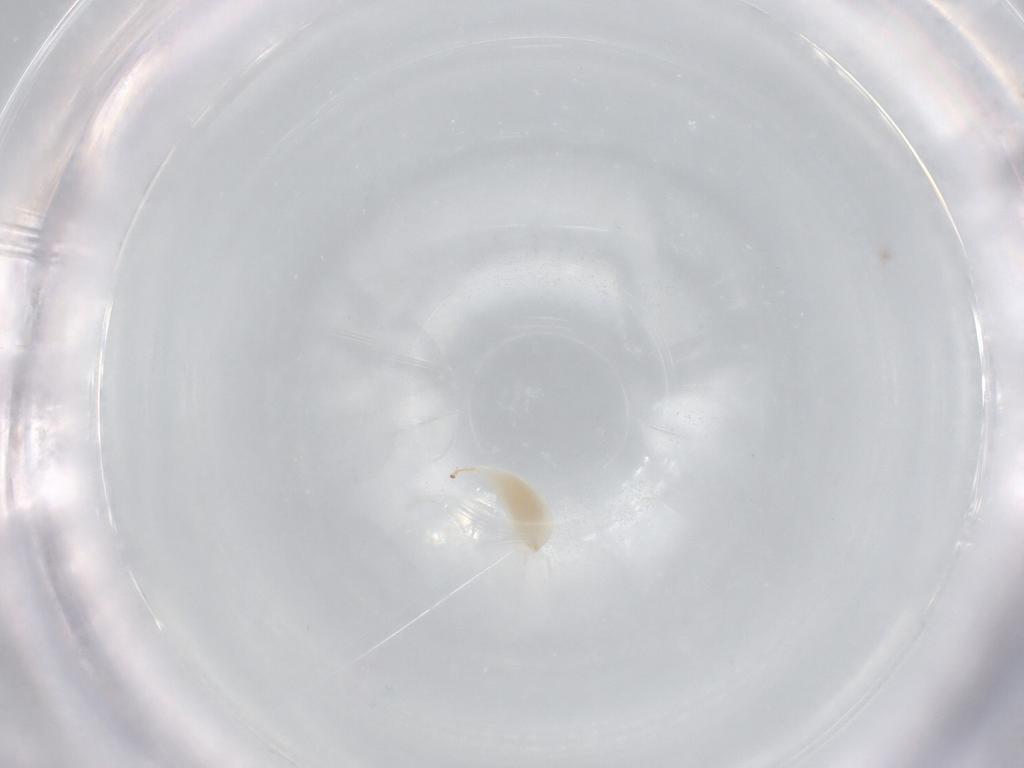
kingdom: Animalia
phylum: Arthropoda
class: Insecta
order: Hymenoptera
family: Ichneumonidae
